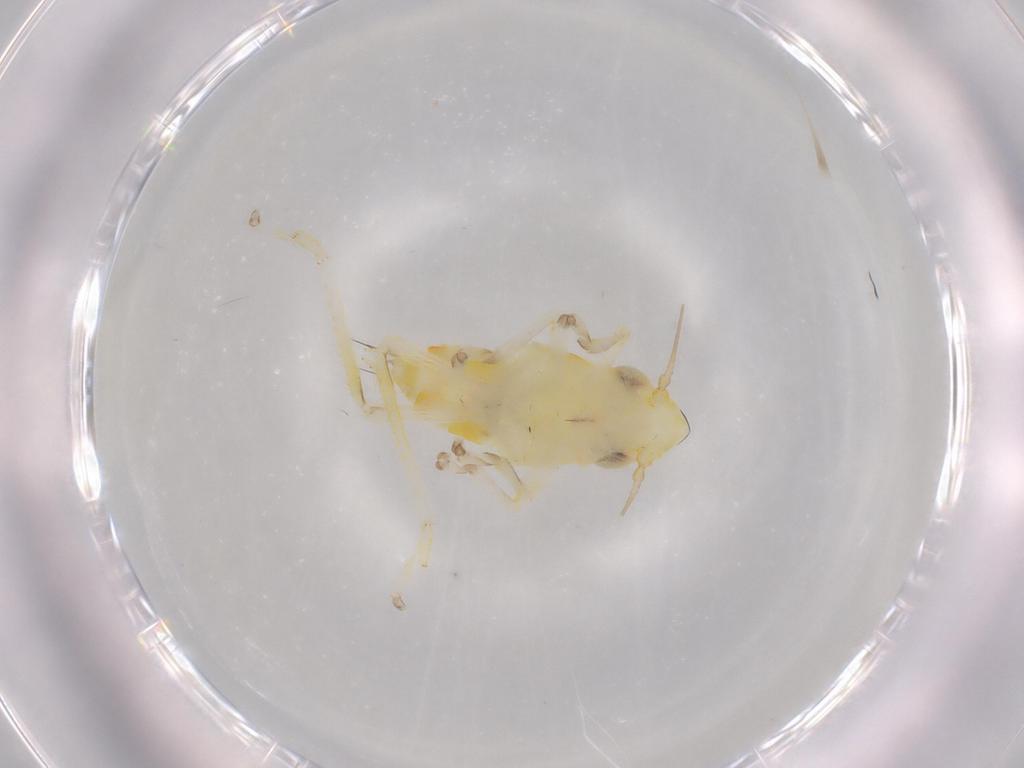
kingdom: Animalia
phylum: Arthropoda
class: Insecta
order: Hemiptera
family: Cicadellidae
